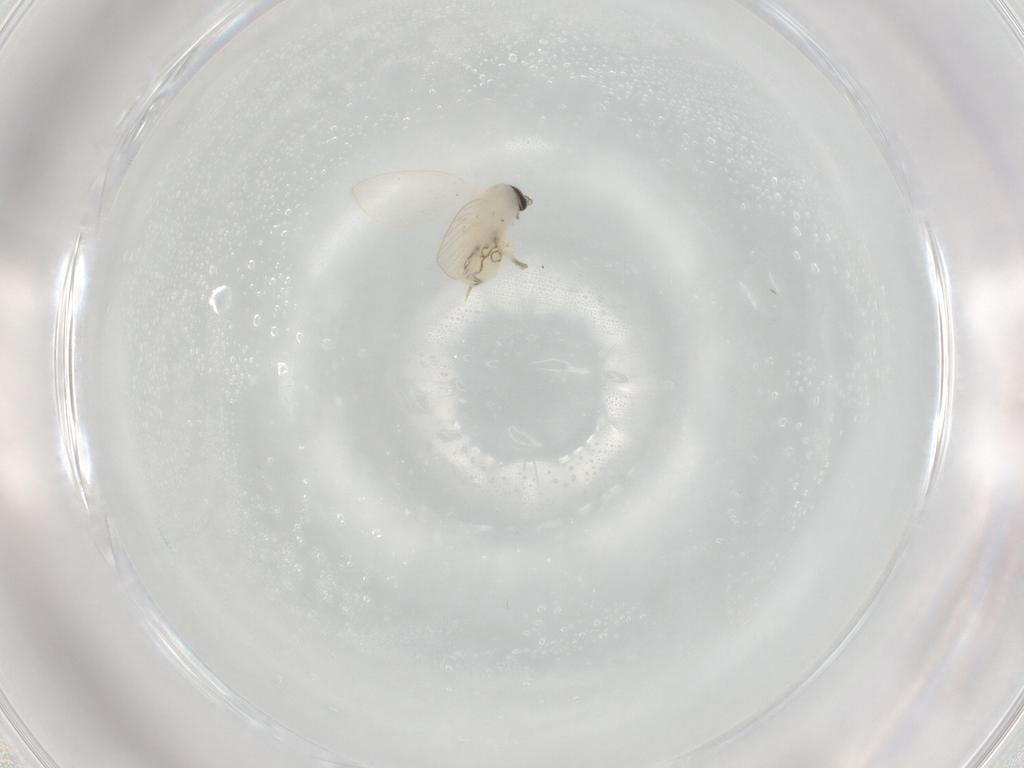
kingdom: Animalia
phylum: Arthropoda
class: Insecta
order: Diptera
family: Psychodidae
